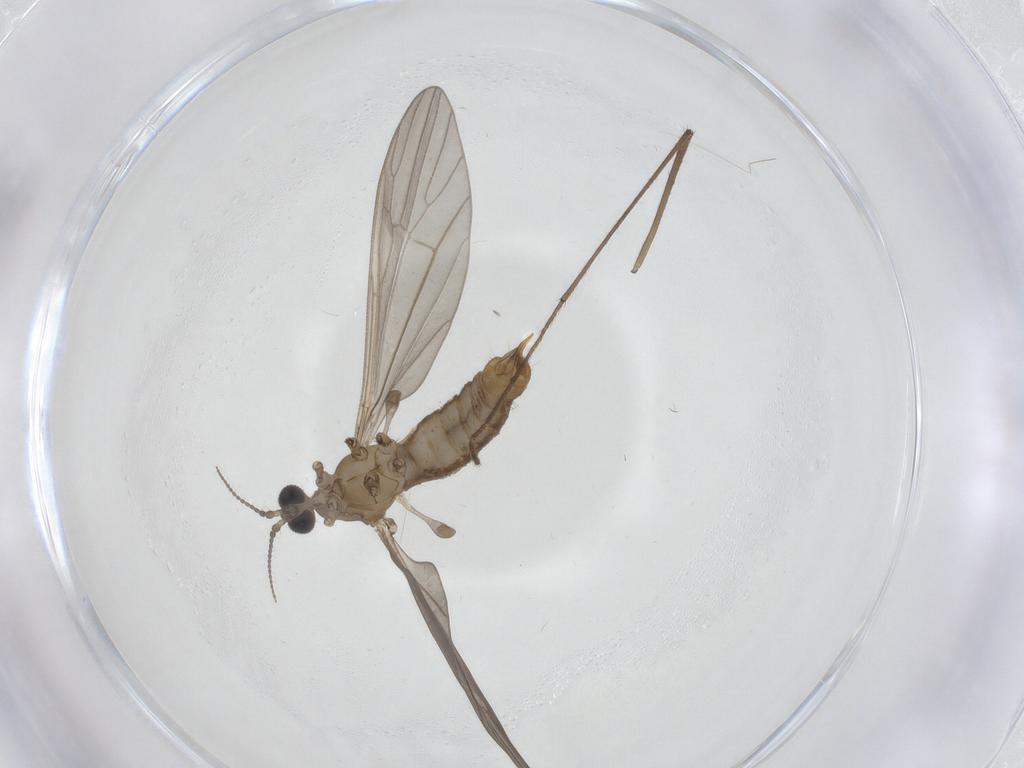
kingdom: Animalia
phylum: Arthropoda
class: Insecta
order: Diptera
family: Limoniidae
